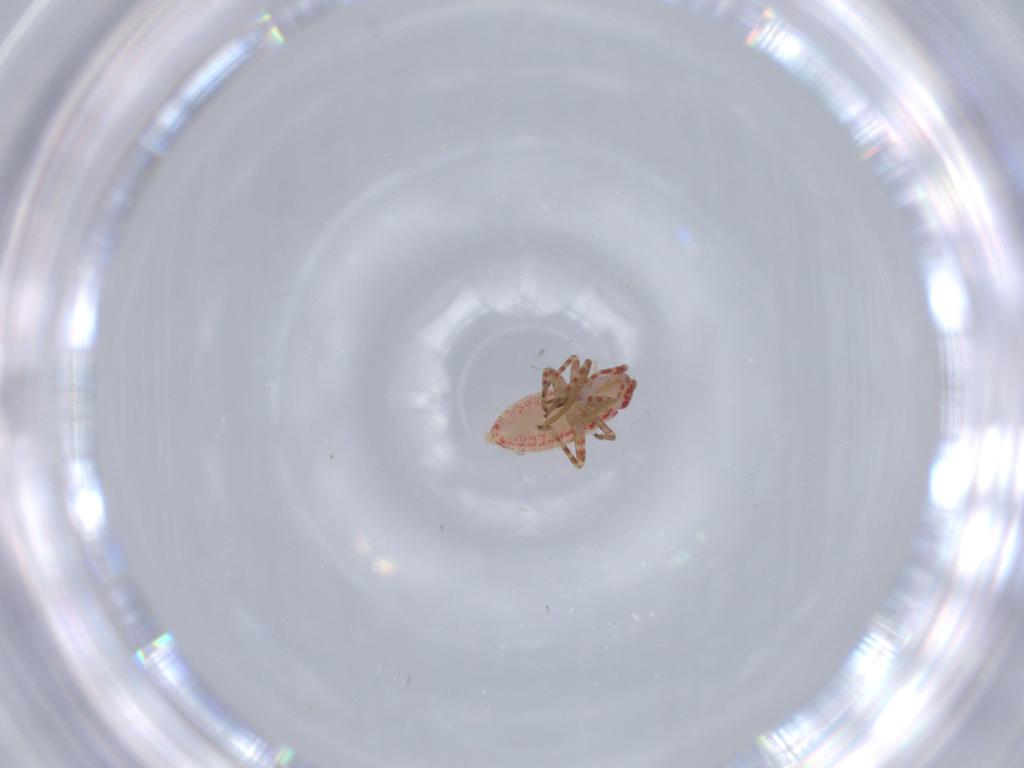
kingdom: Animalia
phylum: Arthropoda
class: Insecta
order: Hemiptera
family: Miridae
